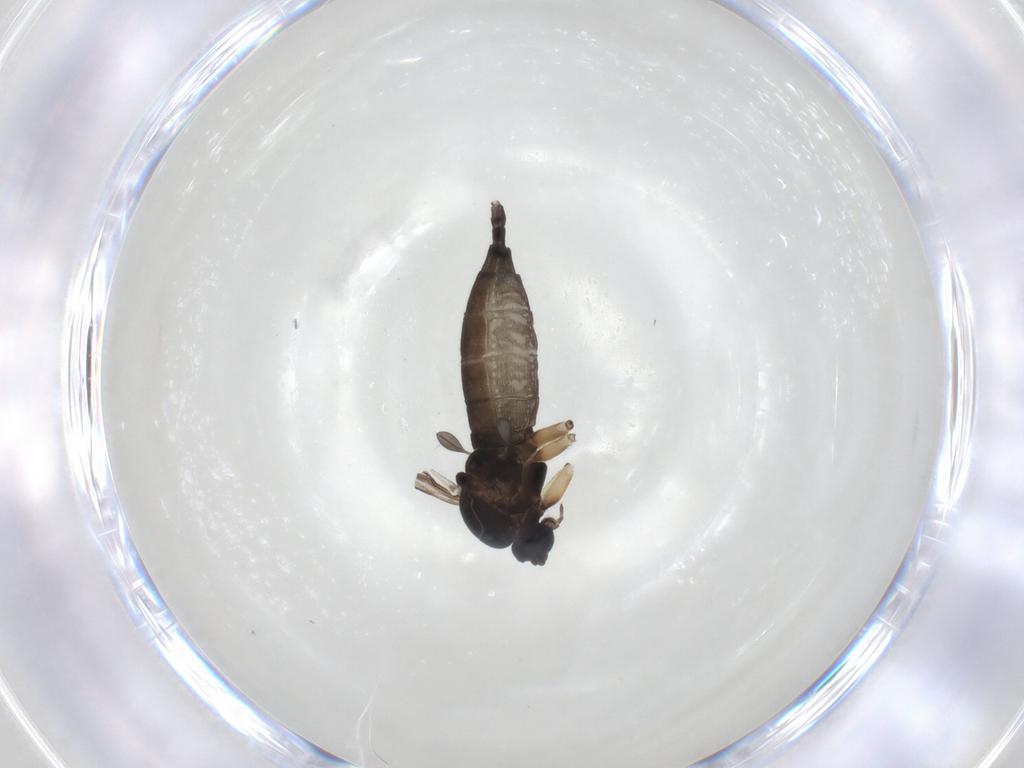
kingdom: Animalia
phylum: Arthropoda
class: Insecta
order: Diptera
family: Sciaridae
